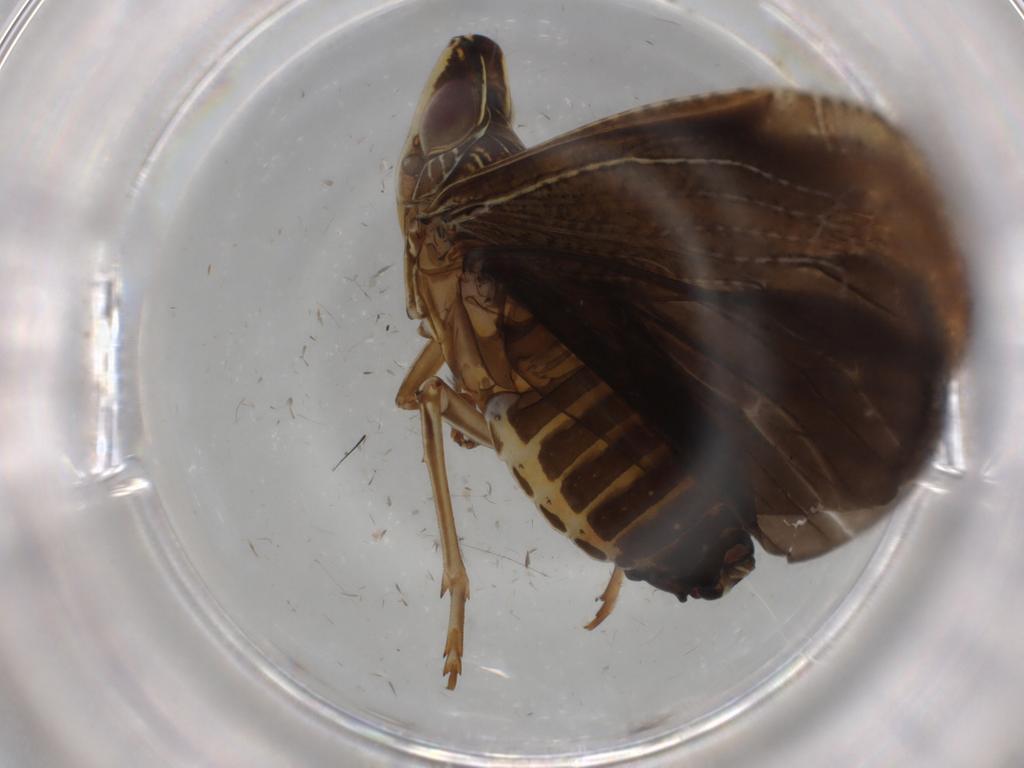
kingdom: Animalia
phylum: Arthropoda
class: Insecta
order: Hemiptera
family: Achilidae
